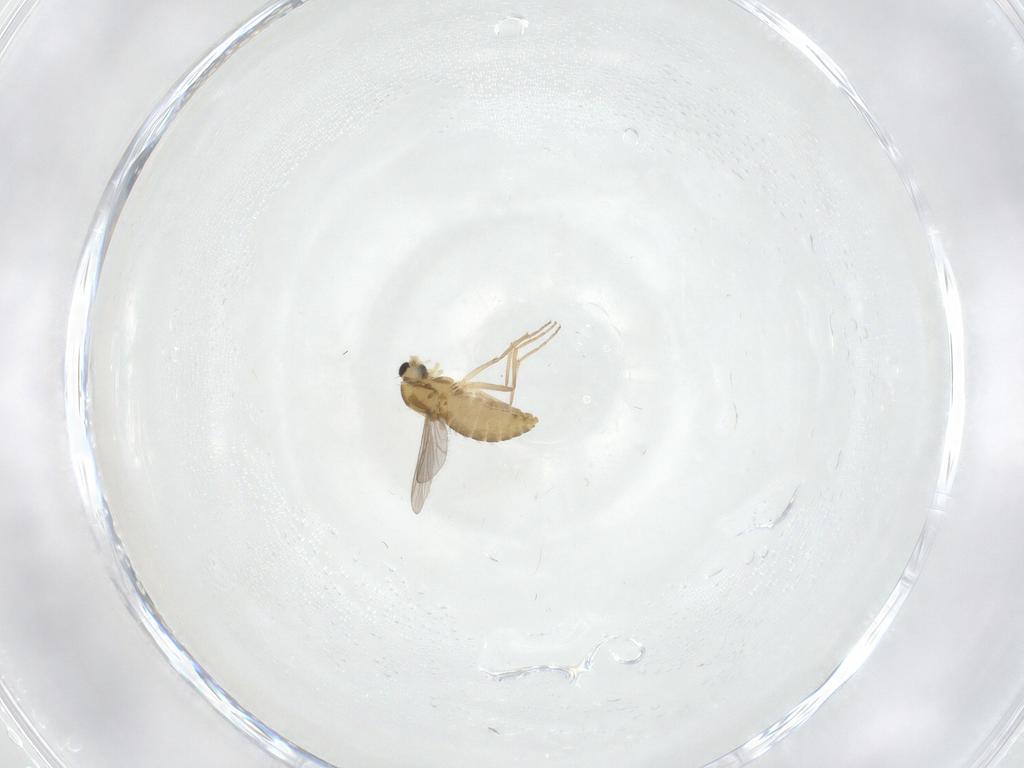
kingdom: Animalia
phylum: Arthropoda
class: Insecta
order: Diptera
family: Chironomidae
